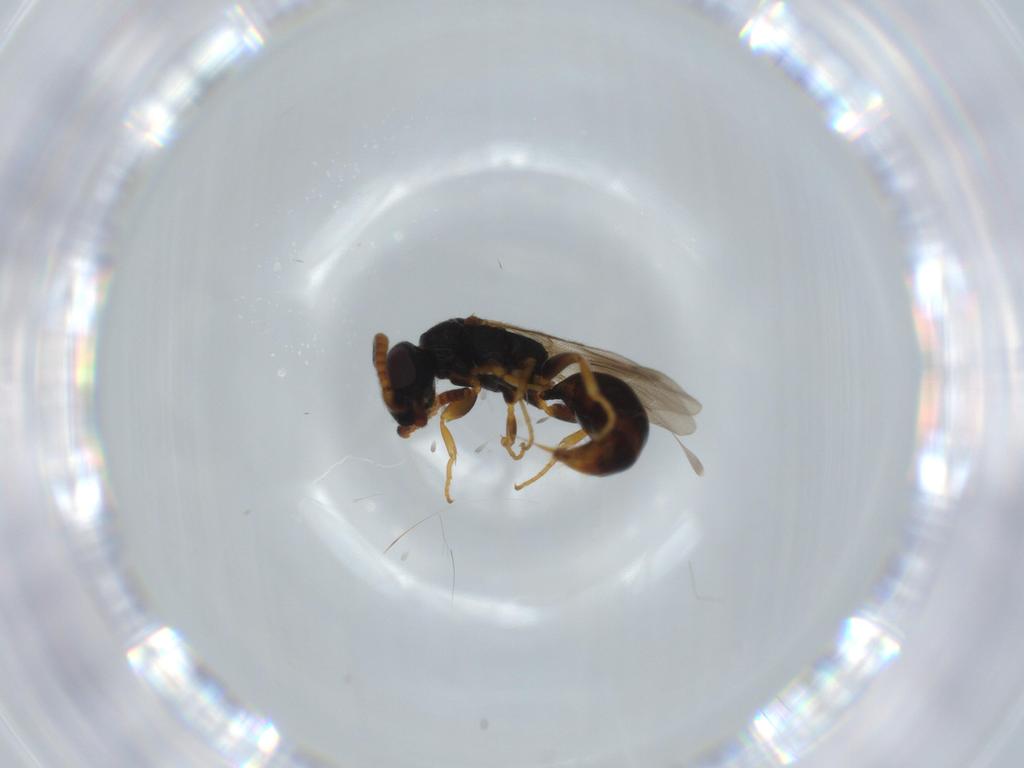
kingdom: Animalia
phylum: Arthropoda
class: Insecta
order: Hymenoptera
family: Bethylidae
